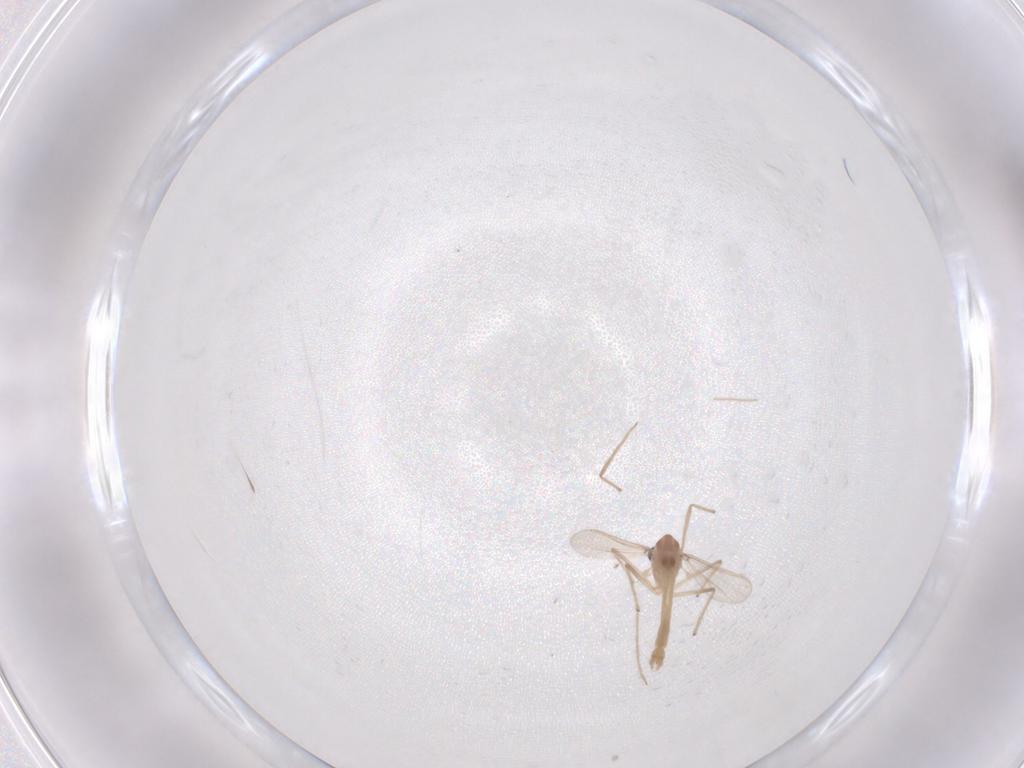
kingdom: Animalia
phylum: Arthropoda
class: Insecta
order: Diptera
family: Chironomidae
